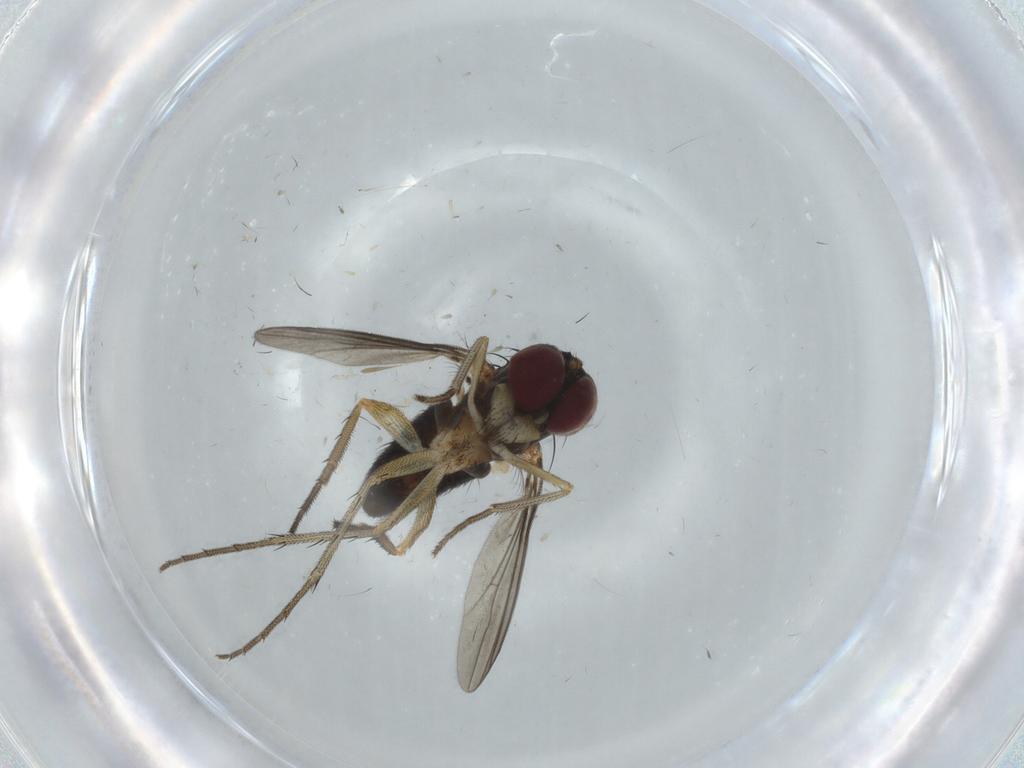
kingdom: Animalia
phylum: Arthropoda
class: Insecta
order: Diptera
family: Dolichopodidae
